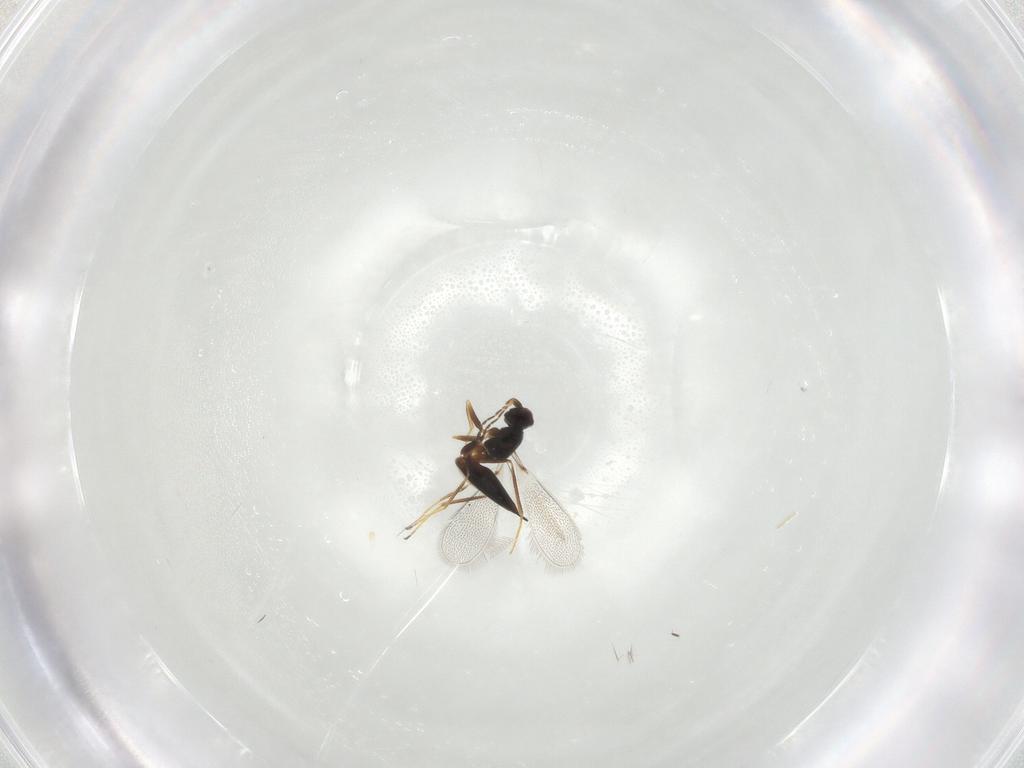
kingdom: Animalia
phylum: Arthropoda
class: Insecta
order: Hymenoptera
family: Mymaridae
